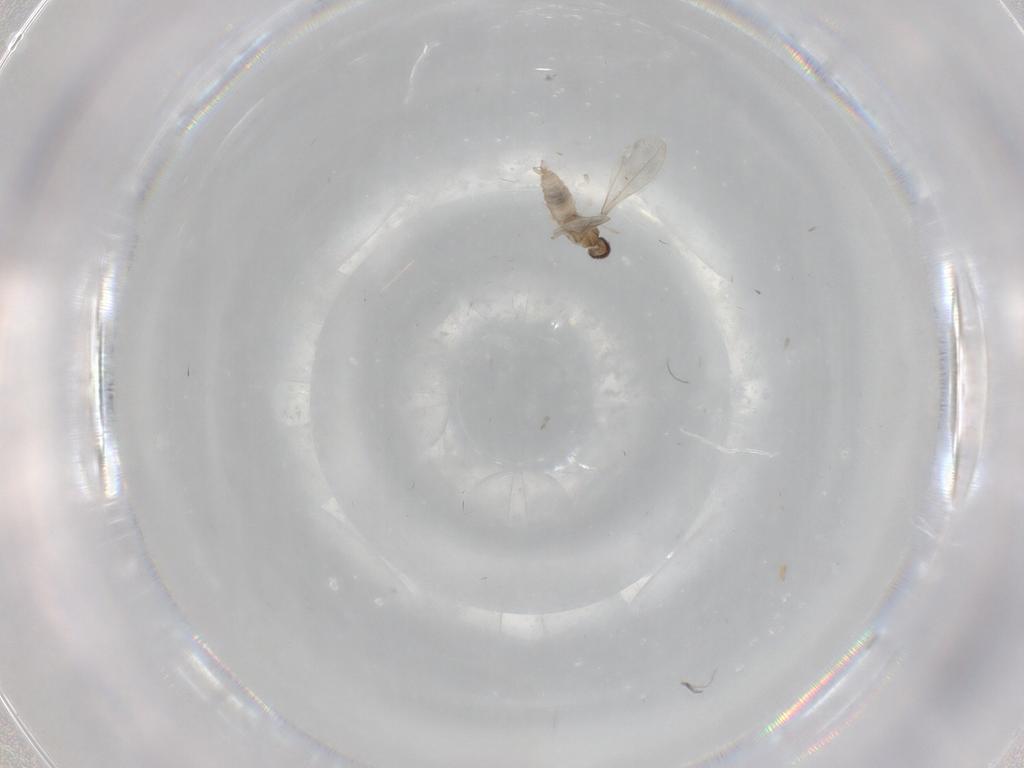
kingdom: Animalia
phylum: Arthropoda
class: Insecta
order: Diptera
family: Cecidomyiidae
